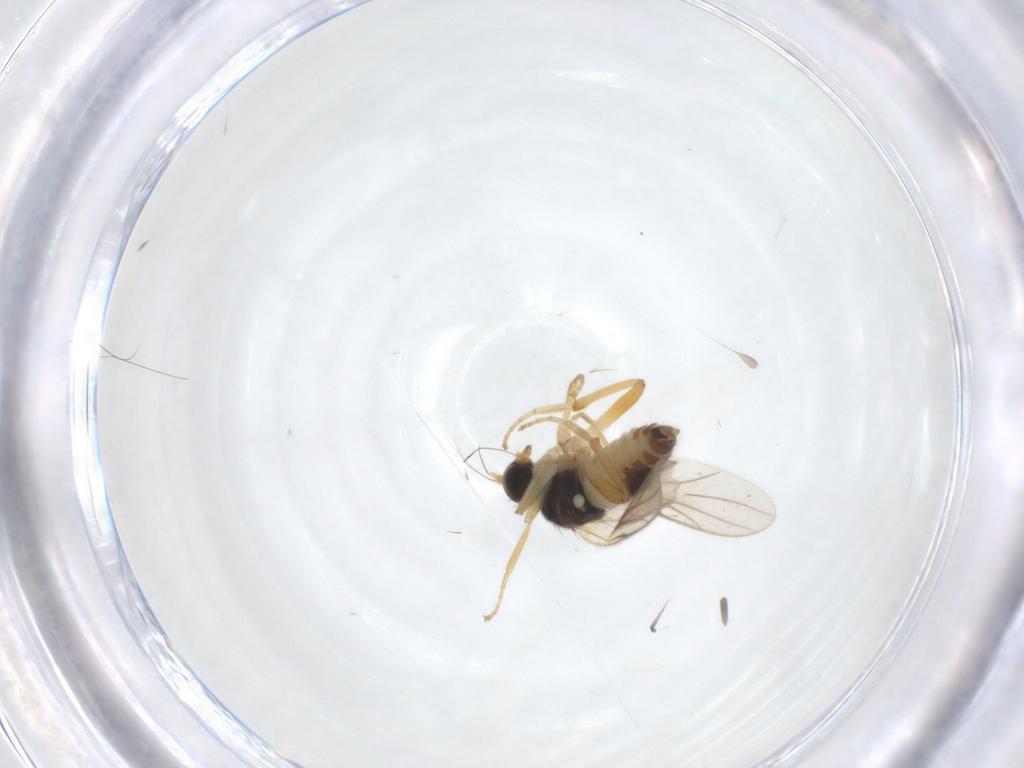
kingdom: Animalia
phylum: Arthropoda
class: Insecta
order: Diptera
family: Hybotidae
